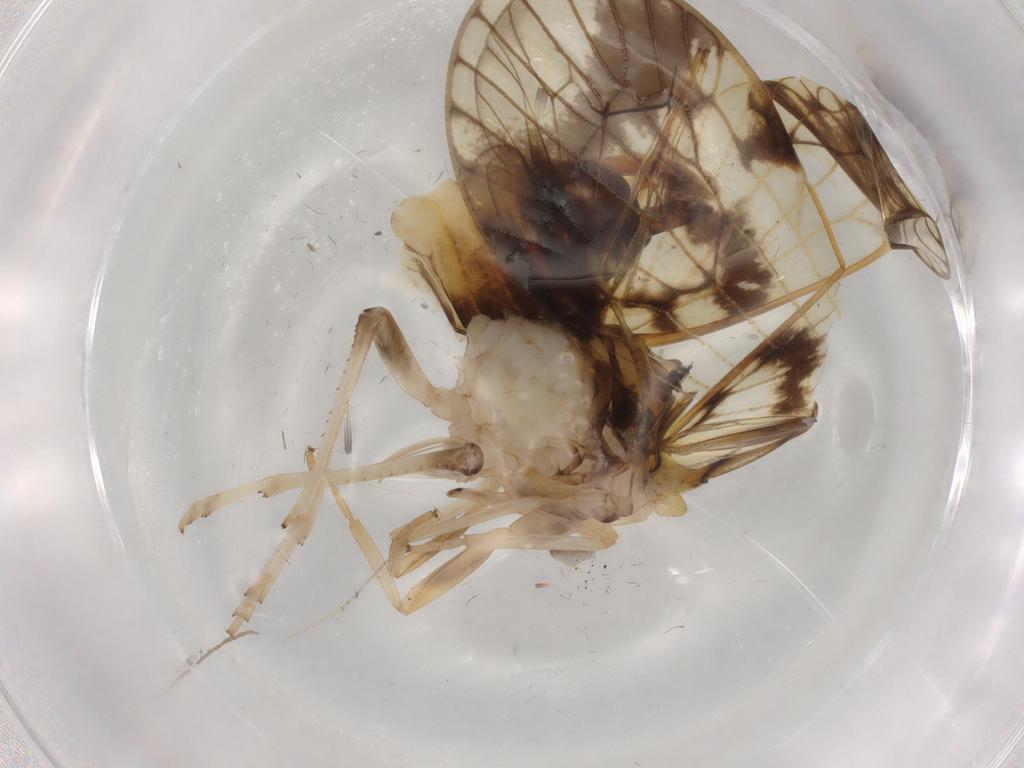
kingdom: Animalia
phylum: Arthropoda
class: Insecta
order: Hemiptera
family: Cixiidae
